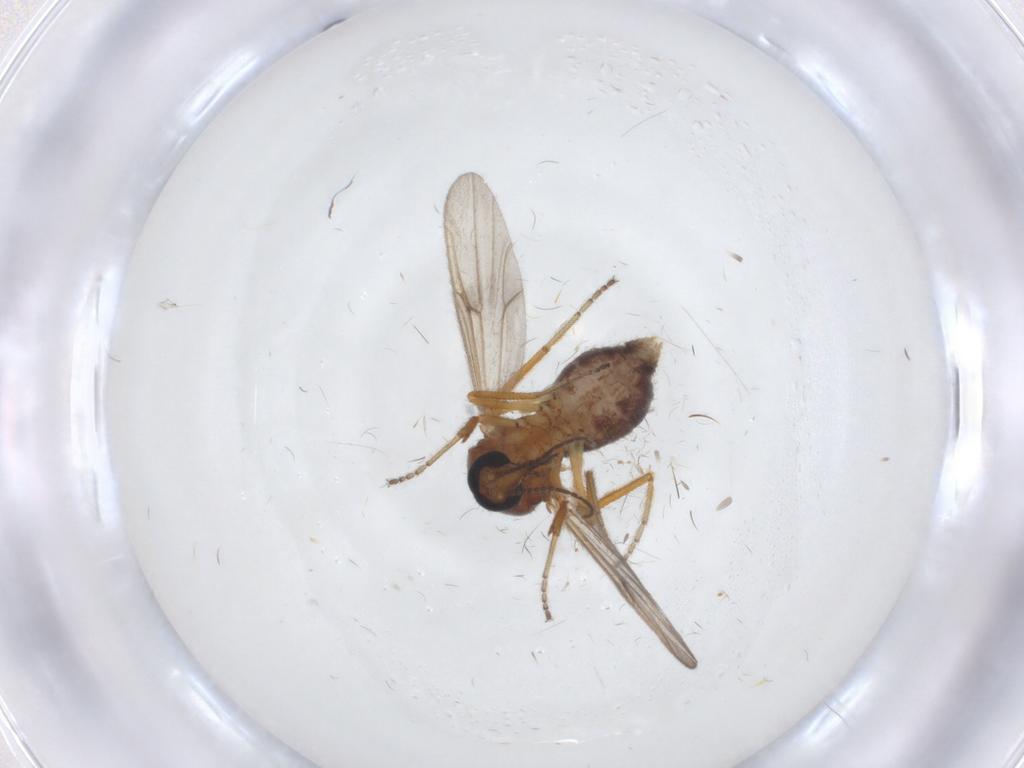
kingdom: Animalia
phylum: Arthropoda
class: Insecta
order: Diptera
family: Ceratopogonidae
